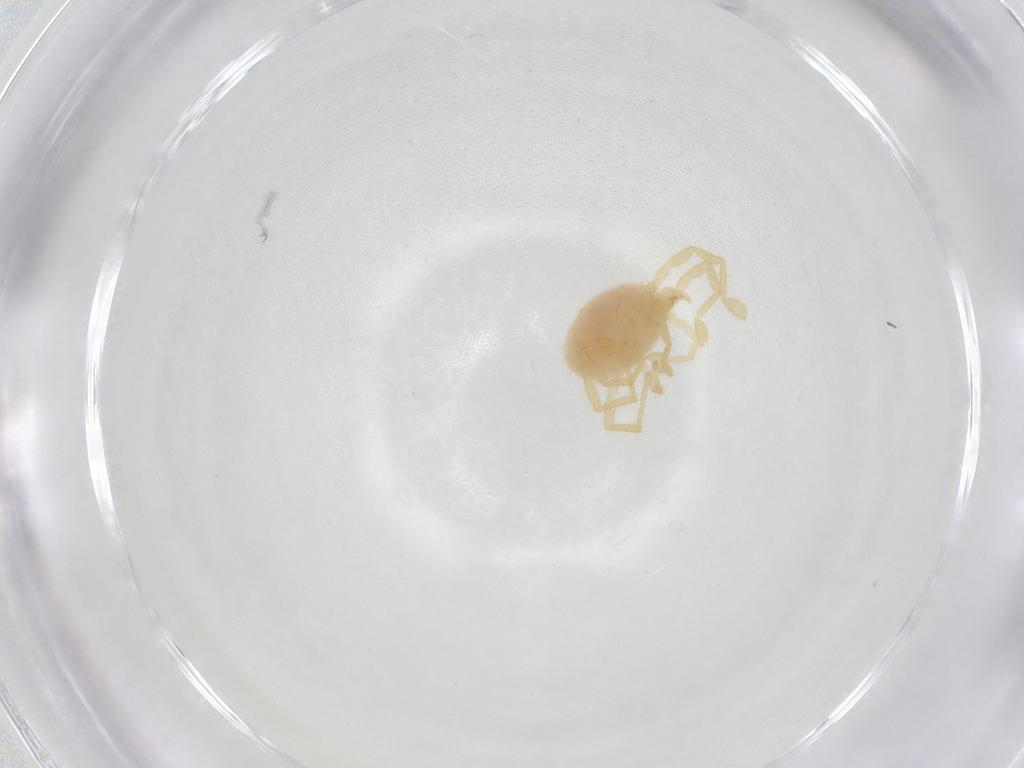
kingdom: Animalia
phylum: Arthropoda
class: Arachnida
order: Trombidiformes
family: Erythraeidae
